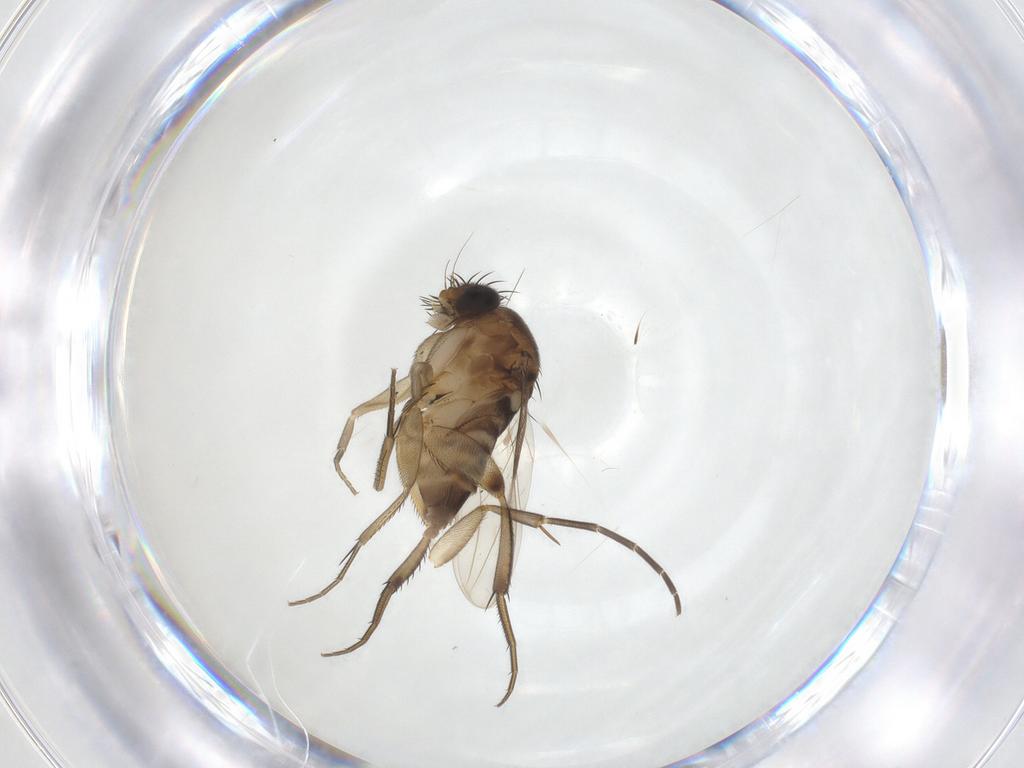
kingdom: Animalia
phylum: Arthropoda
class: Insecta
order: Diptera
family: Phoridae
